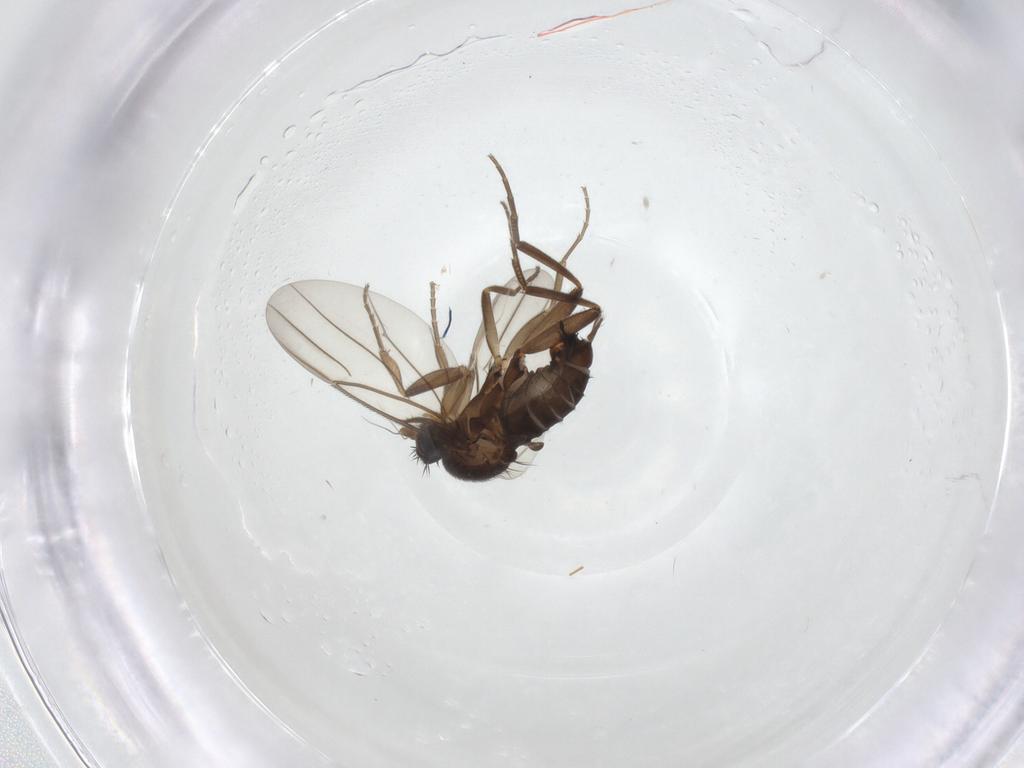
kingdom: Animalia
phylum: Arthropoda
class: Insecta
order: Diptera
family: Drosophilidae
